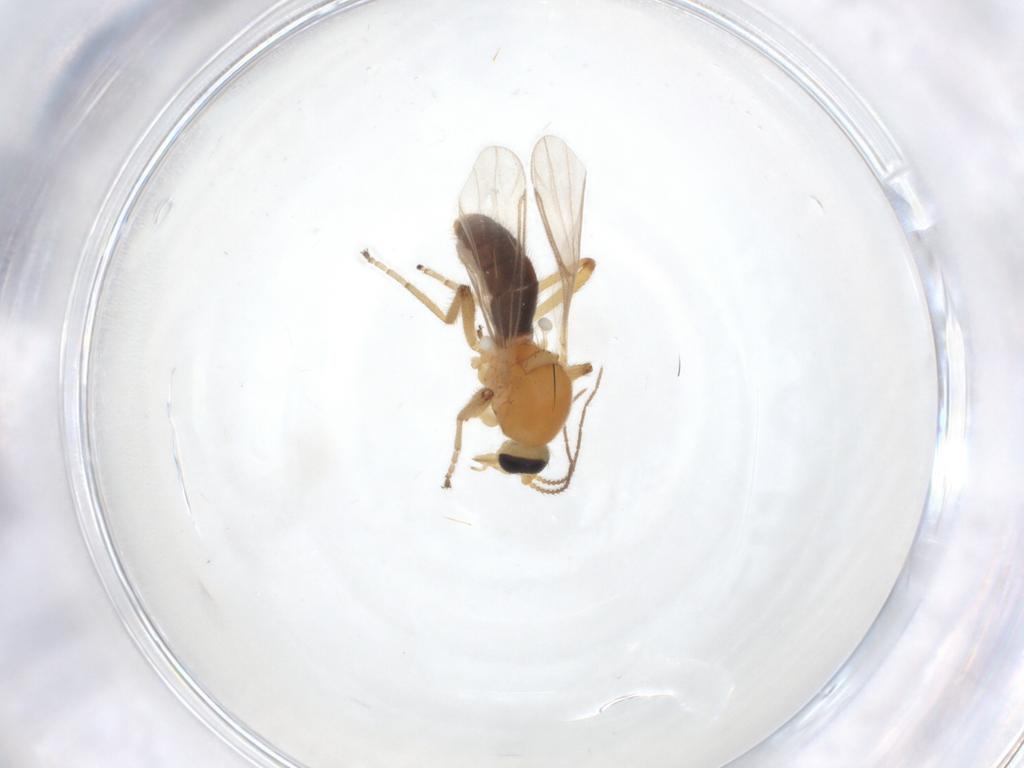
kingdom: Animalia
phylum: Arthropoda
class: Insecta
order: Diptera
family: Ceratopogonidae
